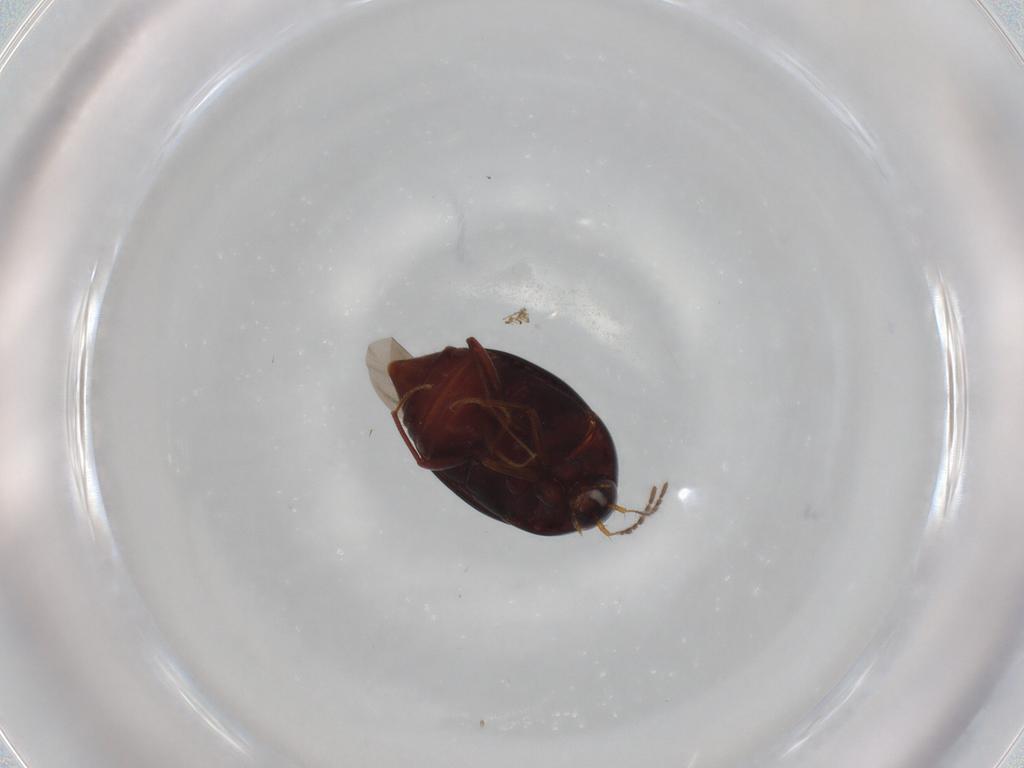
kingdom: Animalia
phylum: Arthropoda
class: Insecta
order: Coleoptera
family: Staphylinidae
